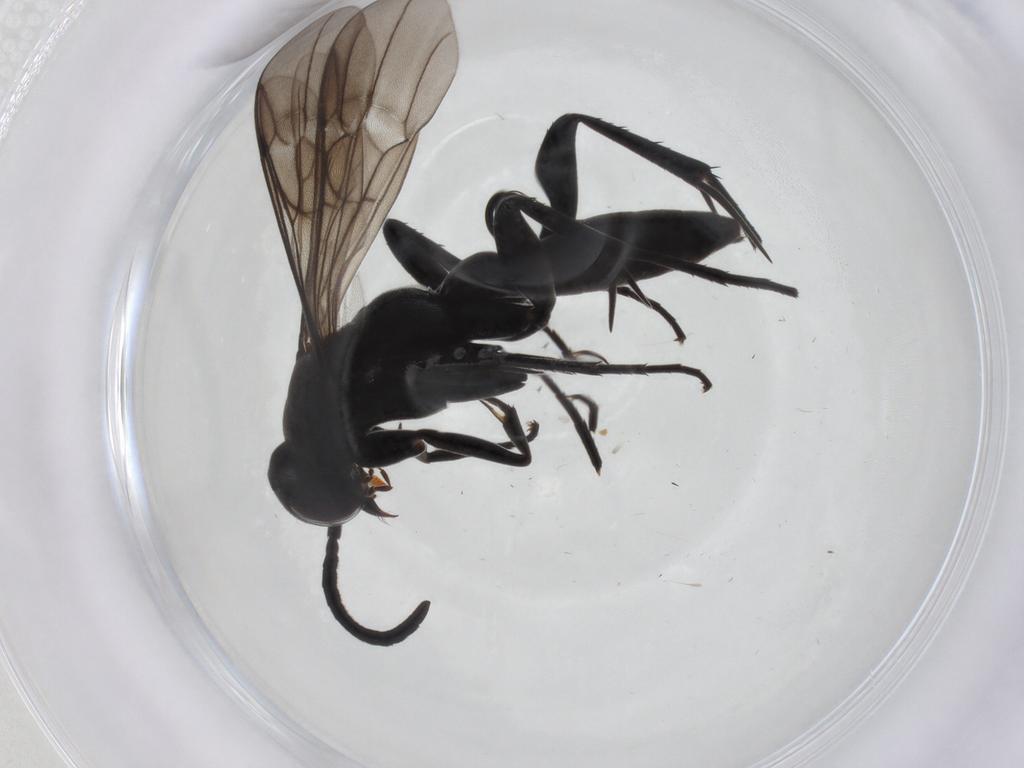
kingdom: Animalia
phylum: Arthropoda
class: Insecta
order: Hymenoptera
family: Pompilidae
